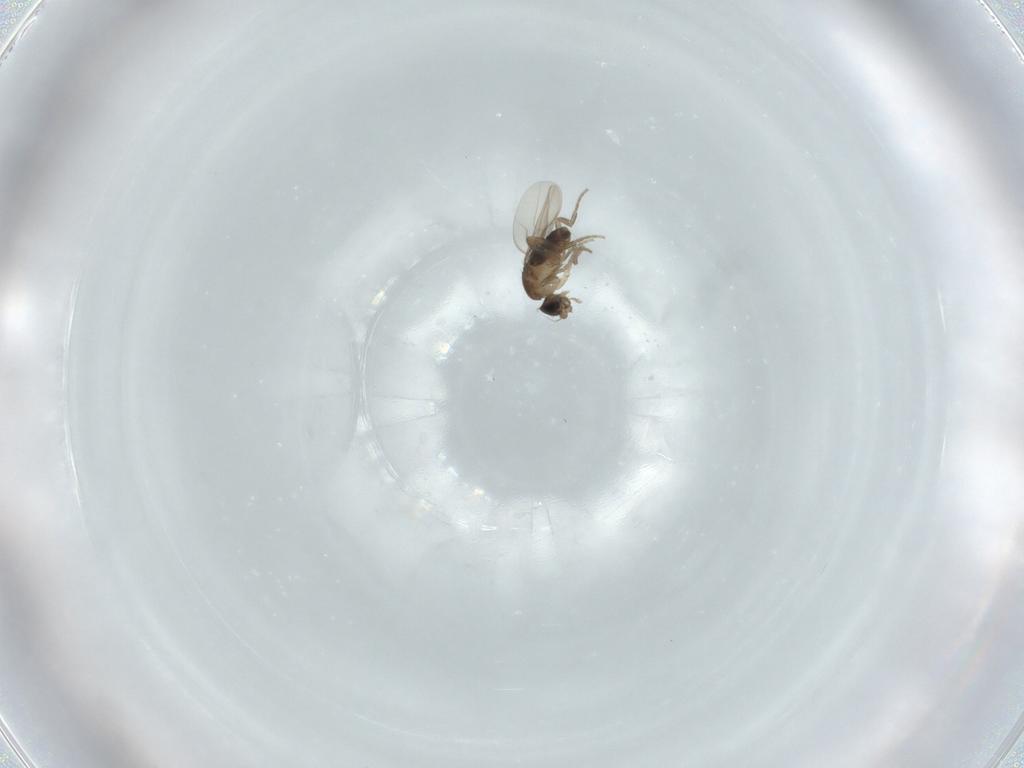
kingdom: Animalia
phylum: Arthropoda
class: Insecta
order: Diptera
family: Phoridae
